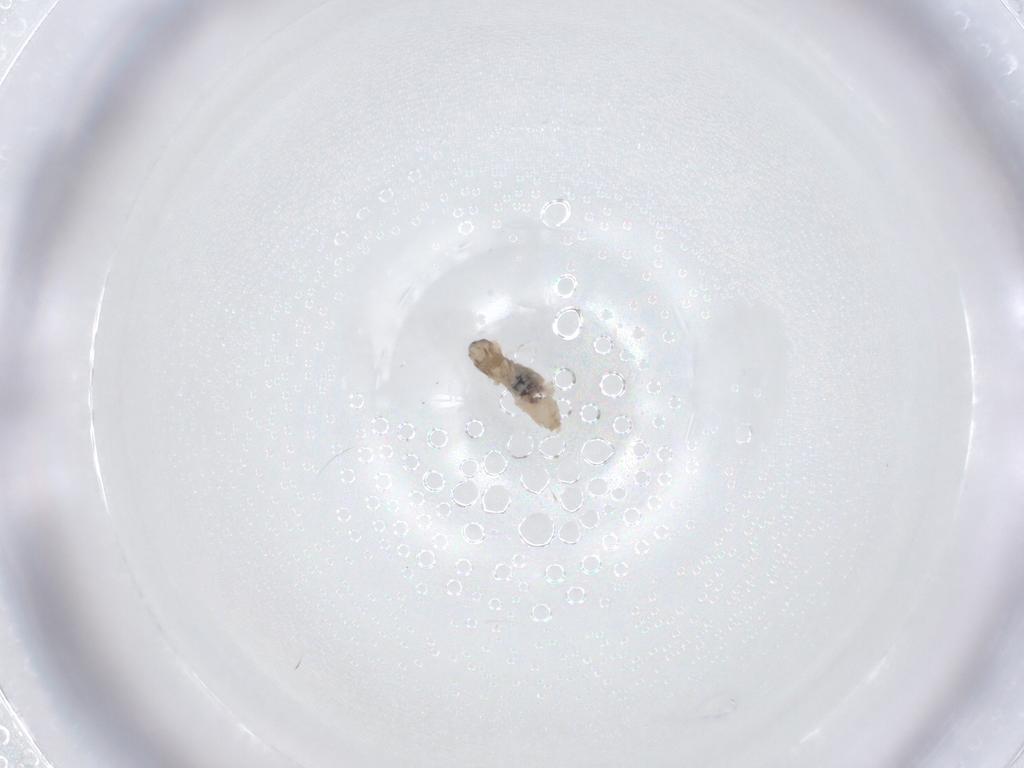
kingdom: Animalia
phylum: Arthropoda
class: Insecta
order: Diptera
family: Cecidomyiidae
